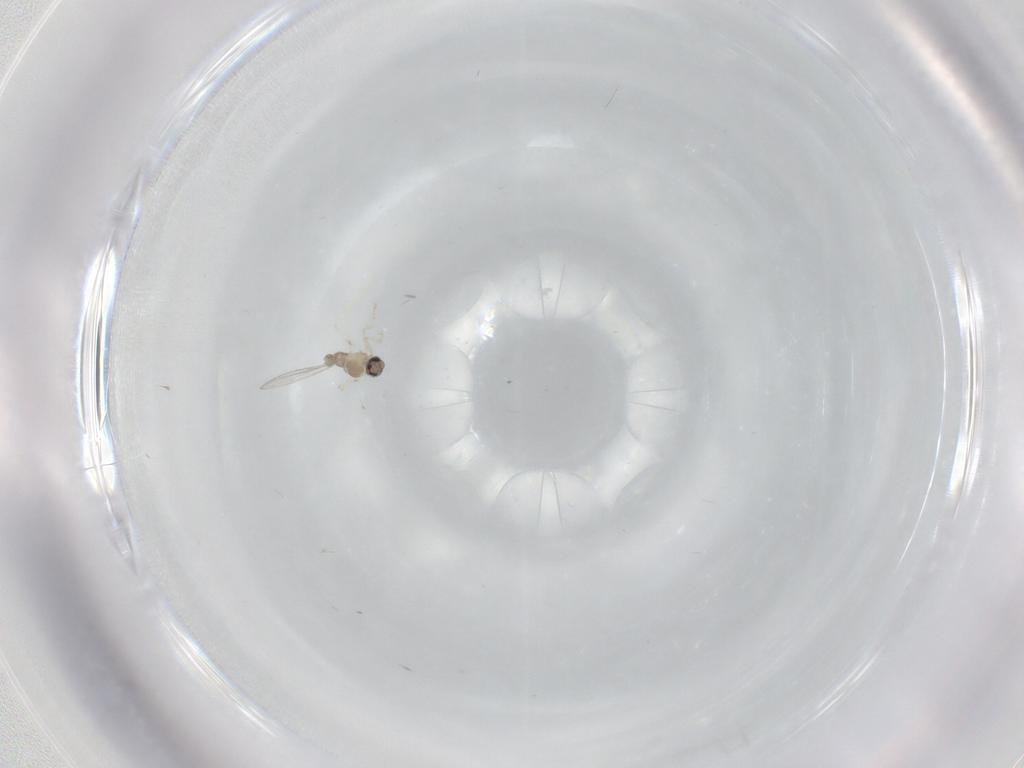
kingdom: Animalia
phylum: Arthropoda
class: Insecta
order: Diptera
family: Cecidomyiidae
